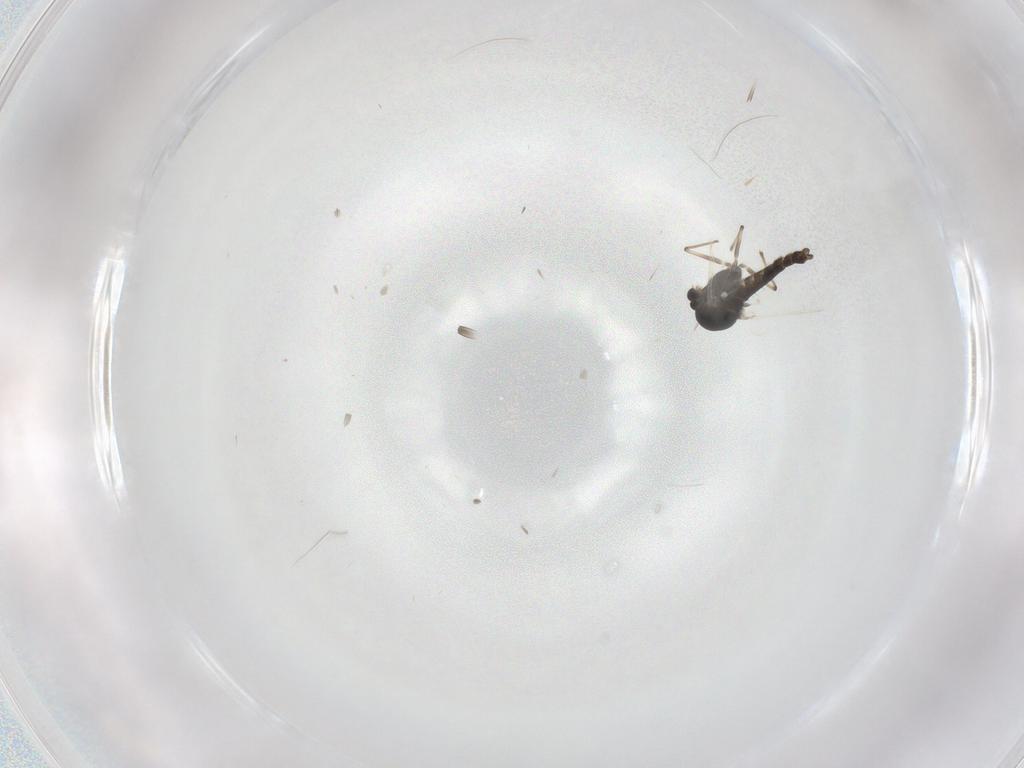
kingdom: Animalia
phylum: Arthropoda
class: Insecta
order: Diptera
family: Chironomidae
